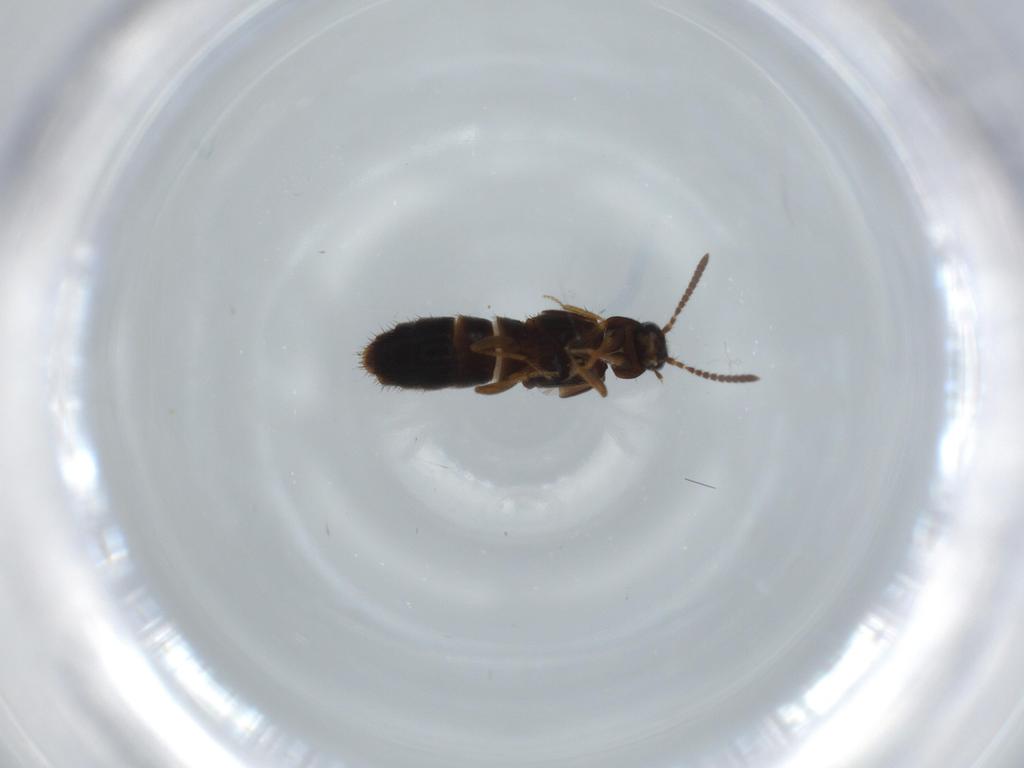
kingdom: Animalia
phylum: Arthropoda
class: Insecta
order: Coleoptera
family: Staphylinidae
